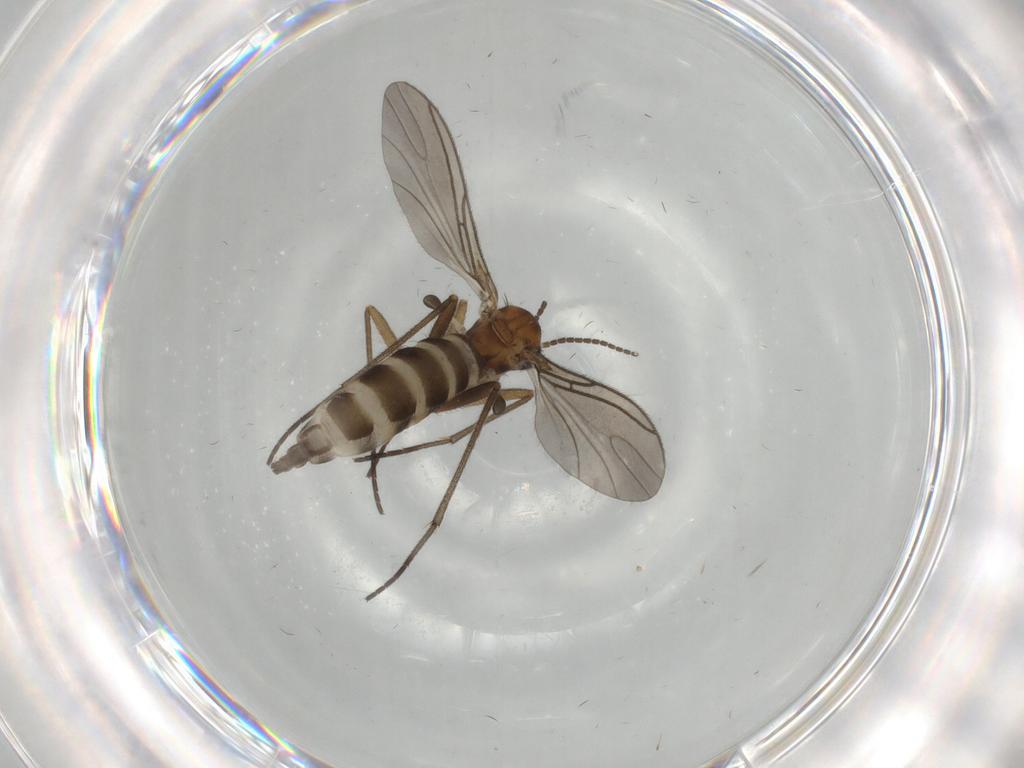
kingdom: Animalia
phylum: Arthropoda
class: Insecta
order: Diptera
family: Sciaridae
